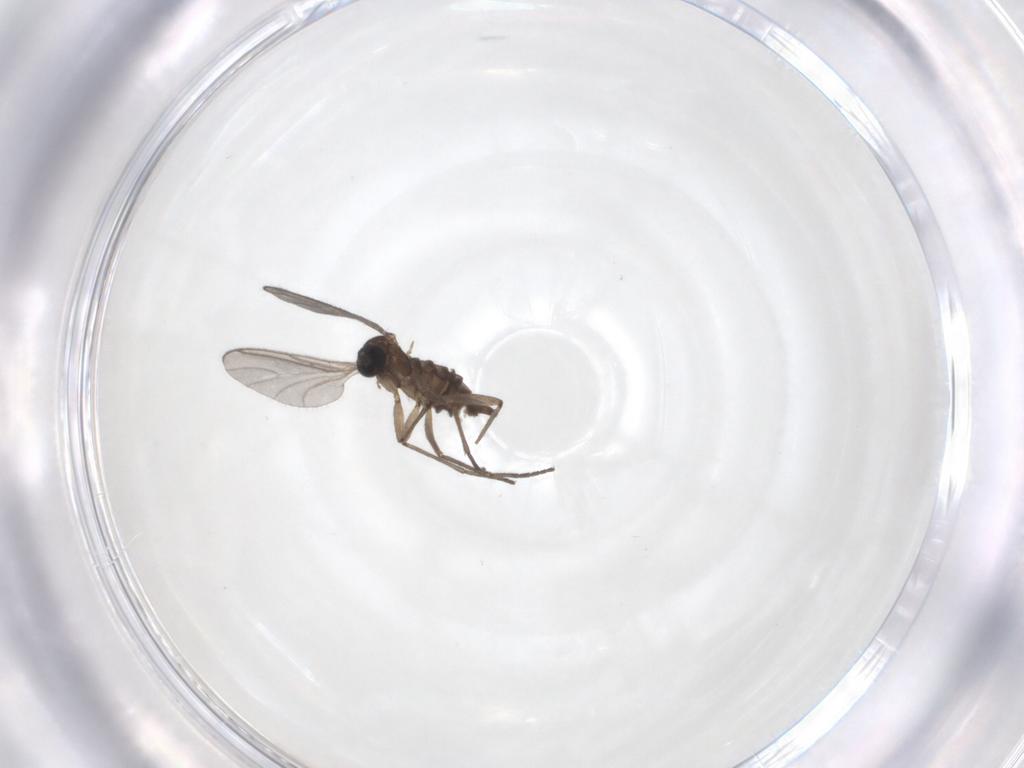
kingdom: Animalia
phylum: Arthropoda
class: Insecta
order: Diptera
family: Sciaridae
